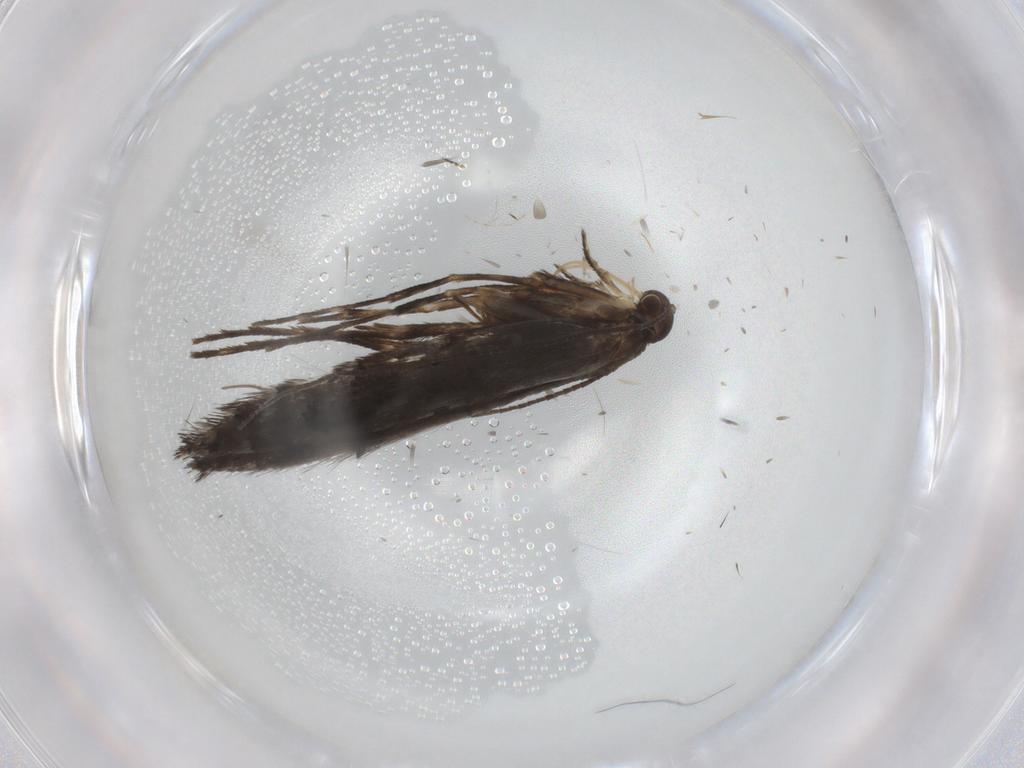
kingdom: Animalia
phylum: Arthropoda
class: Insecta
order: Lepidoptera
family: Gracillariidae
